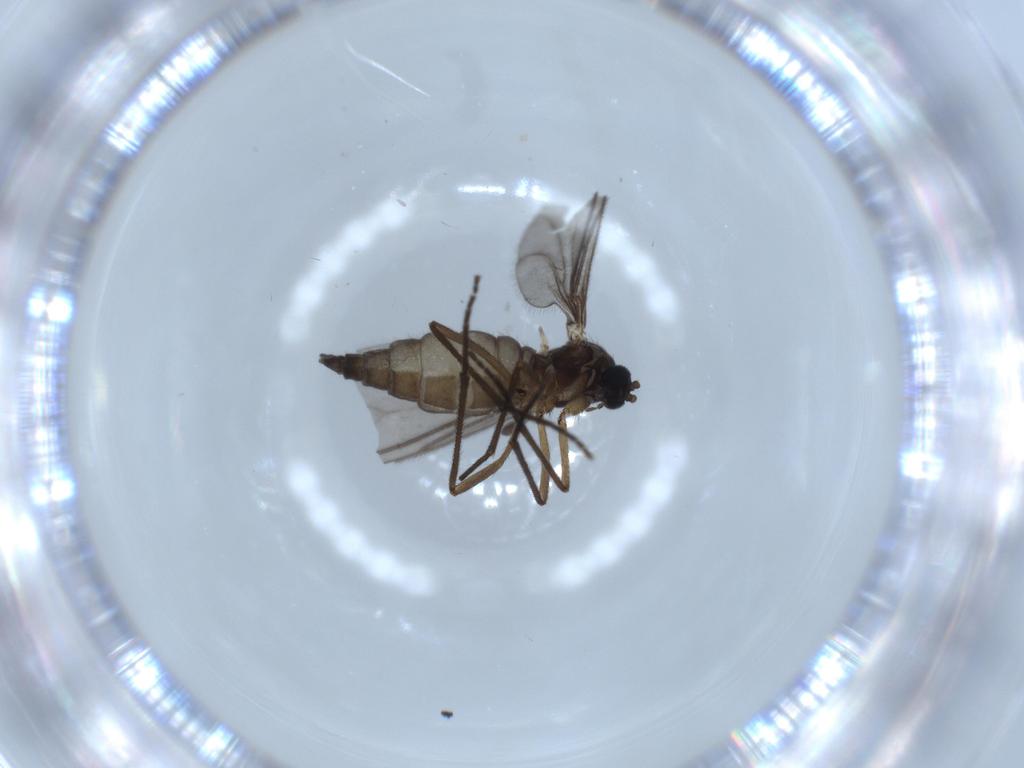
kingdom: Animalia
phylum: Arthropoda
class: Insecta
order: Diptera
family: Sciaridae
